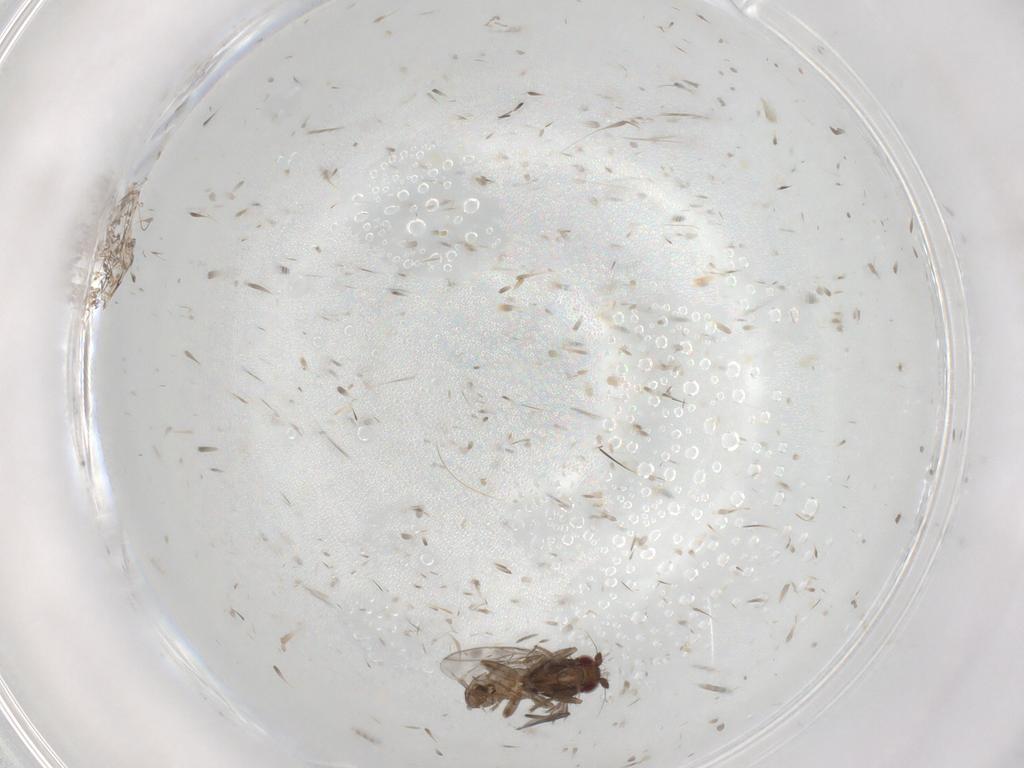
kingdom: Animalia
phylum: Arthropoda
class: Insecta
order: Diptera
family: Sphaeroceridae
